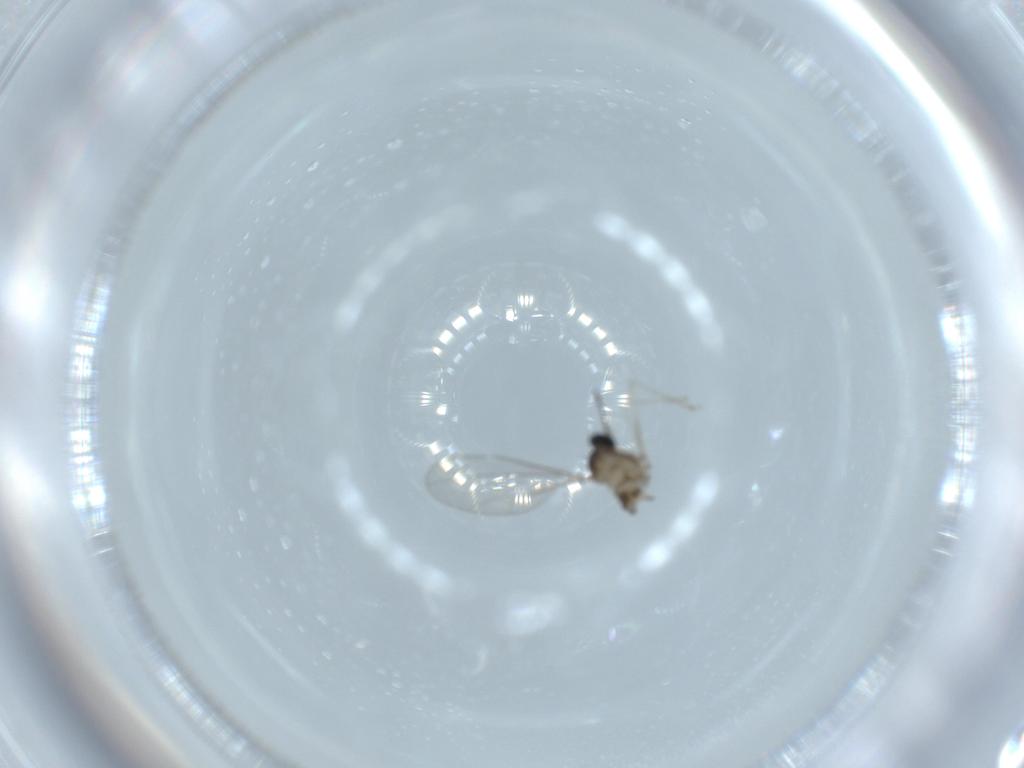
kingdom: Animalia
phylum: Arthropoda
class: Insecta
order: Diptera
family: Cecidomyiidae
